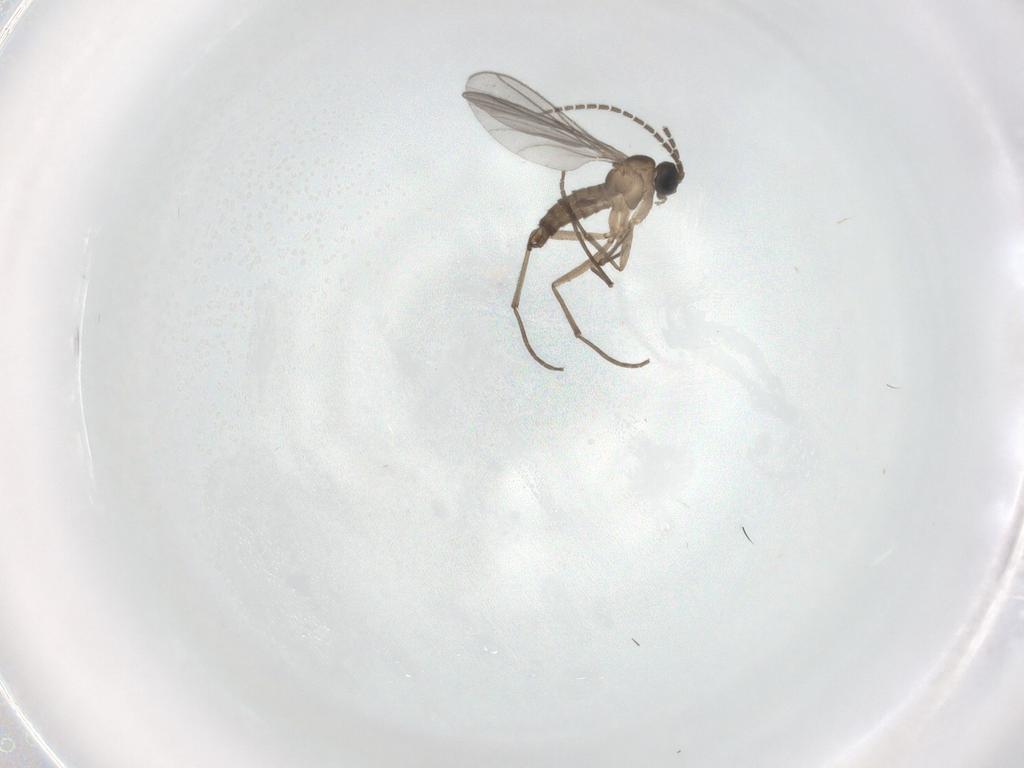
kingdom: Animalia
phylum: Arthropoda
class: Insecta
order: Diptera
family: Sciaridae
